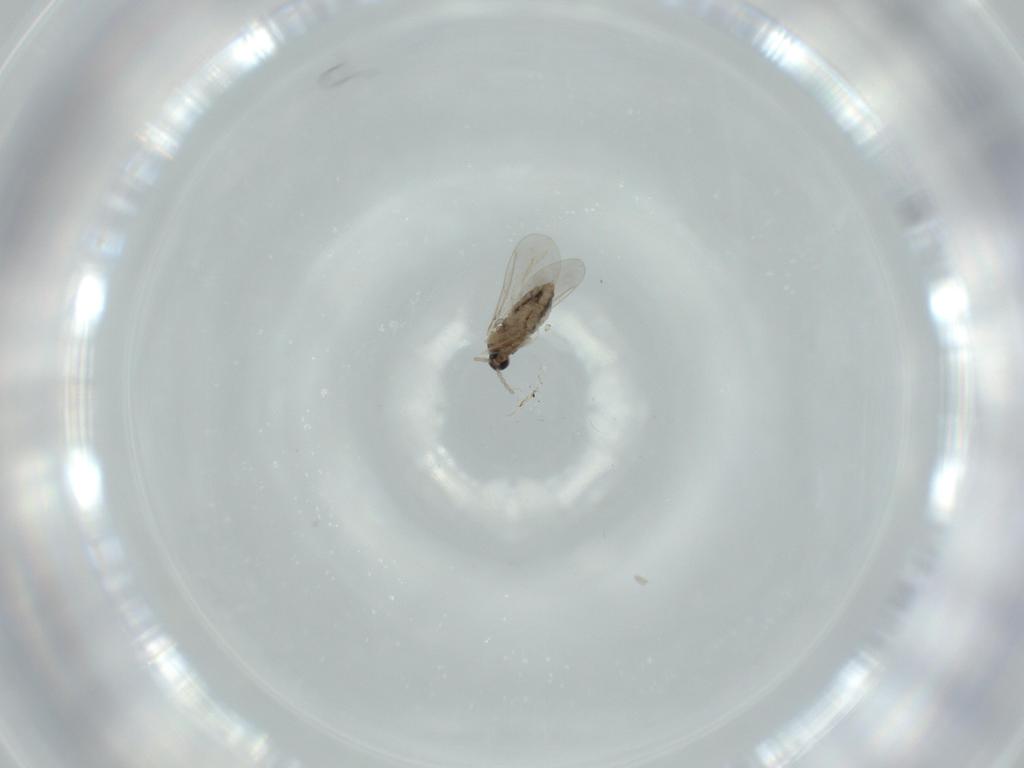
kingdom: Animalia
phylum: Arthropoda
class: Insecta
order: Diptera
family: Cecidomyiidae
